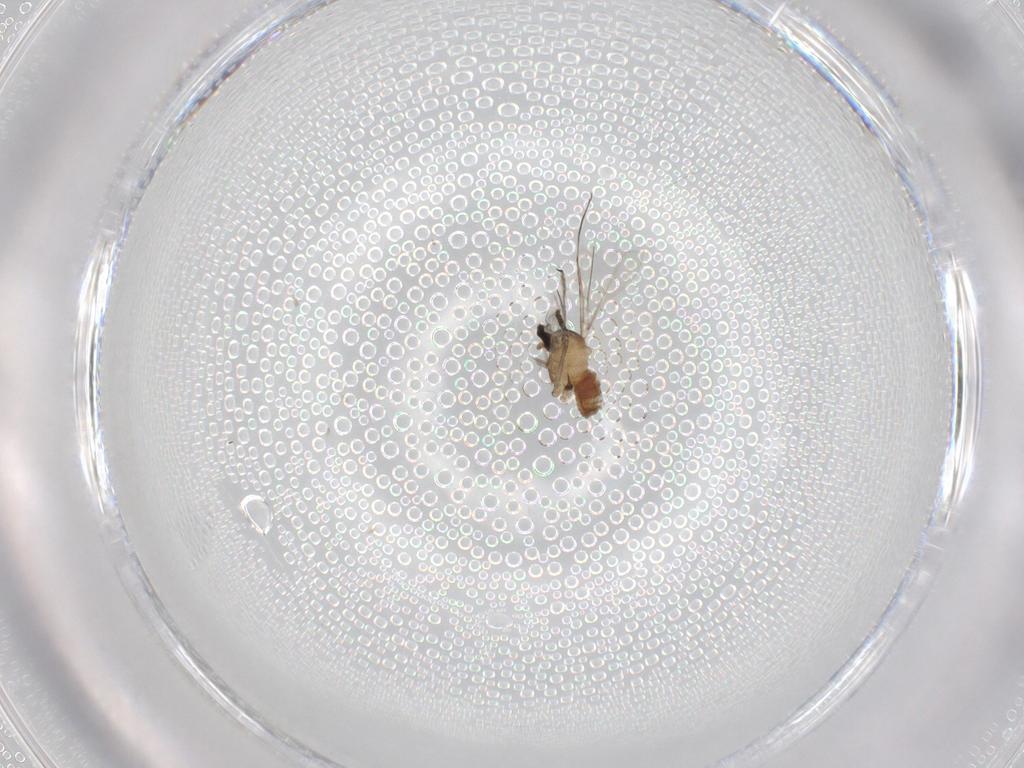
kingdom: Animalia
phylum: Arthropoda
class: Insecta
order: Diptera
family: Cecidomyiidae
